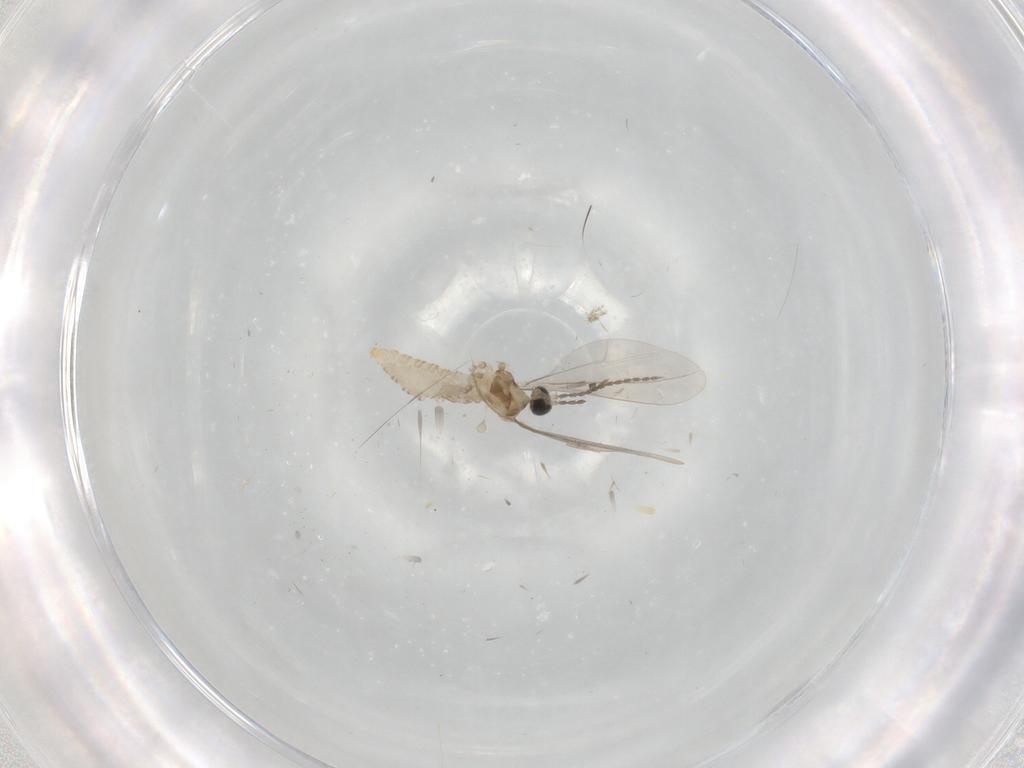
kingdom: Animalia
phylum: Arthropoda
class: Insecta
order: Diptera
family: Cecidomyiidae
